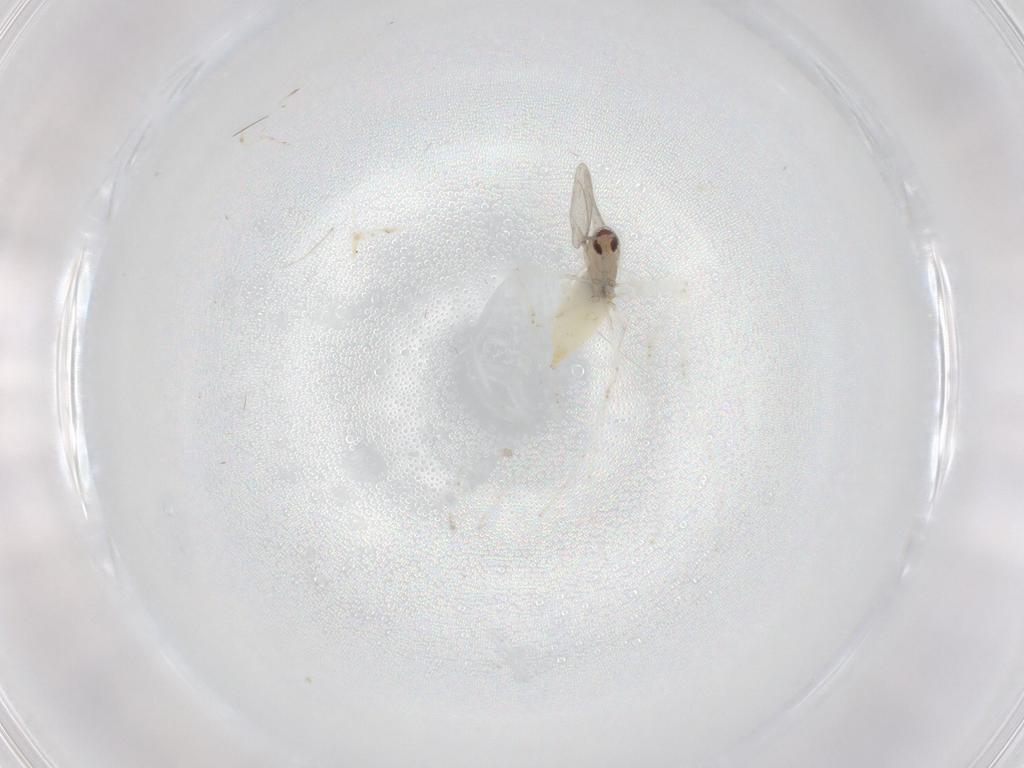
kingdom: Animalia
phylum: Arthropoda
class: Insecta
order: Diptera
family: Cecidomyiidae
